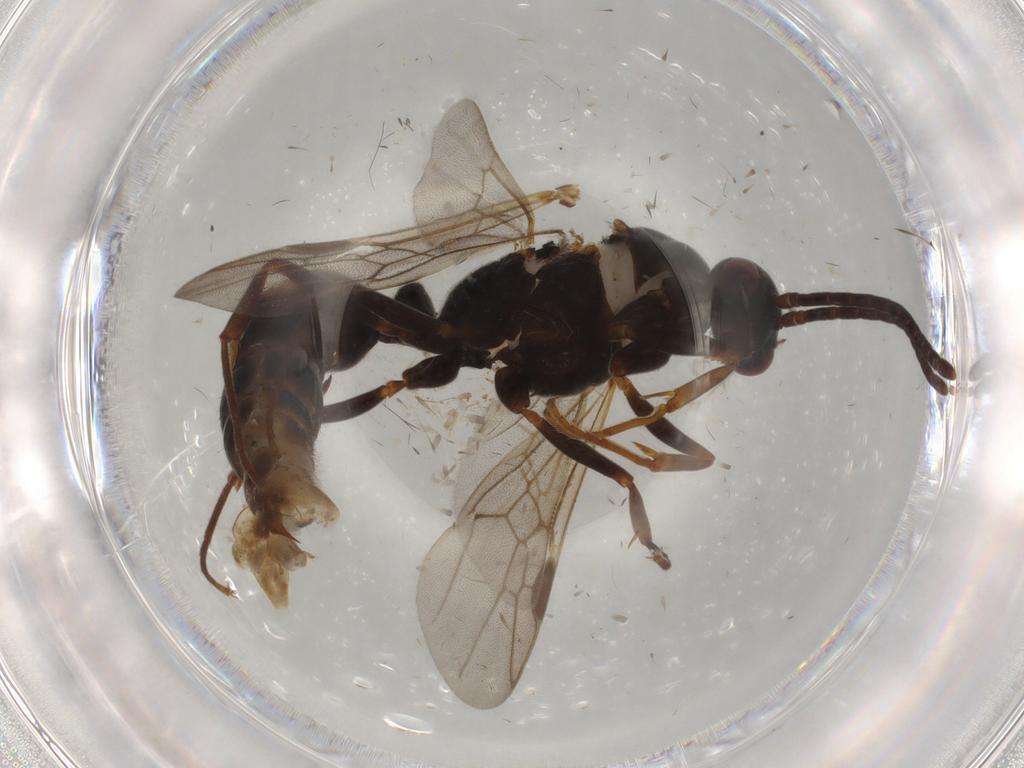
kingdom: Animalia
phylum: Arthropoda
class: Insecta
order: Hymenoptera
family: Formicidae
